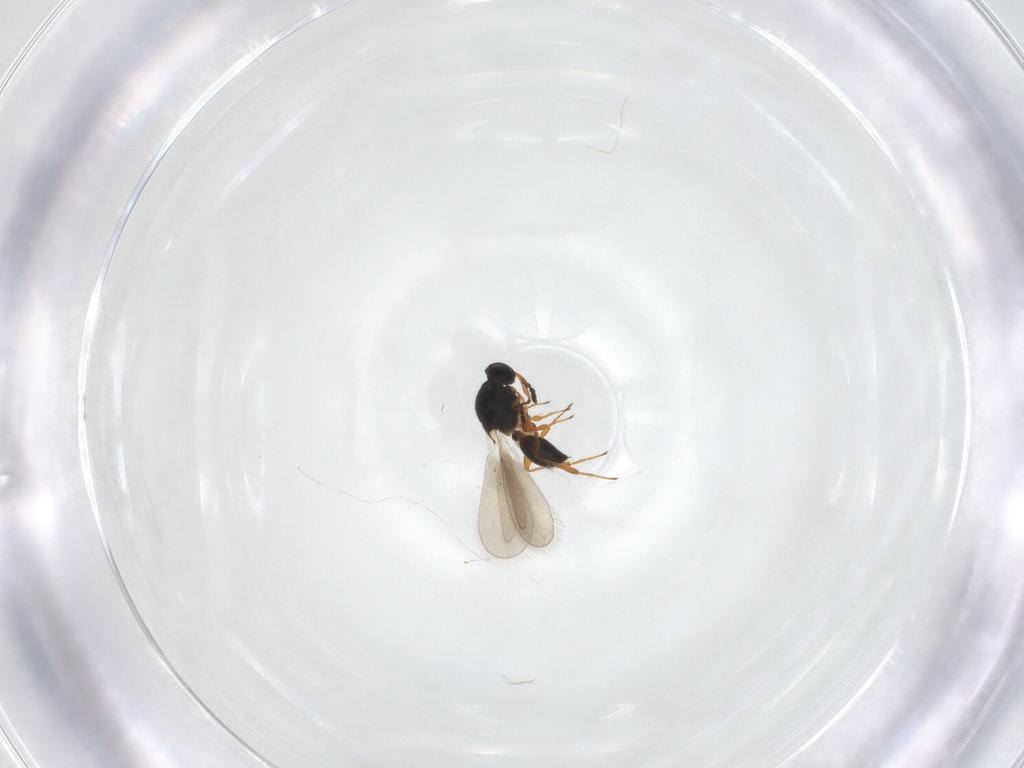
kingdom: Animalia
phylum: Arthropoda
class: Insecta
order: Hymenoptera
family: Platygastridae
